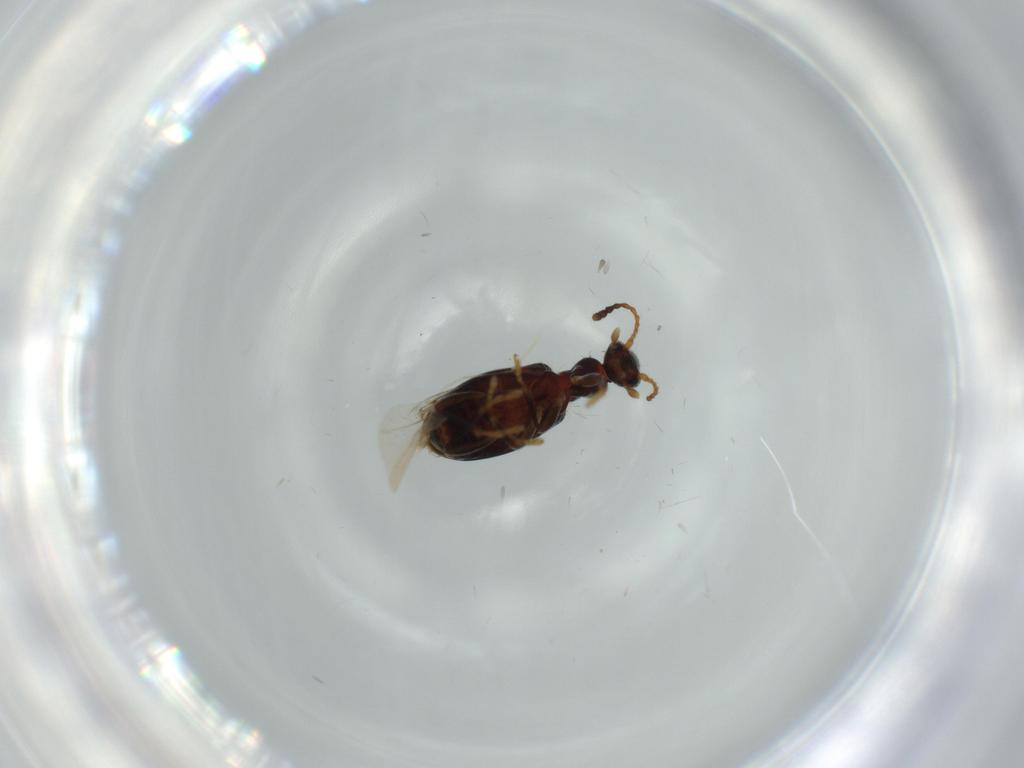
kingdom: Animalia
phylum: Arthropoda
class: Insecta
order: Coleoptera
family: Anthicidae
